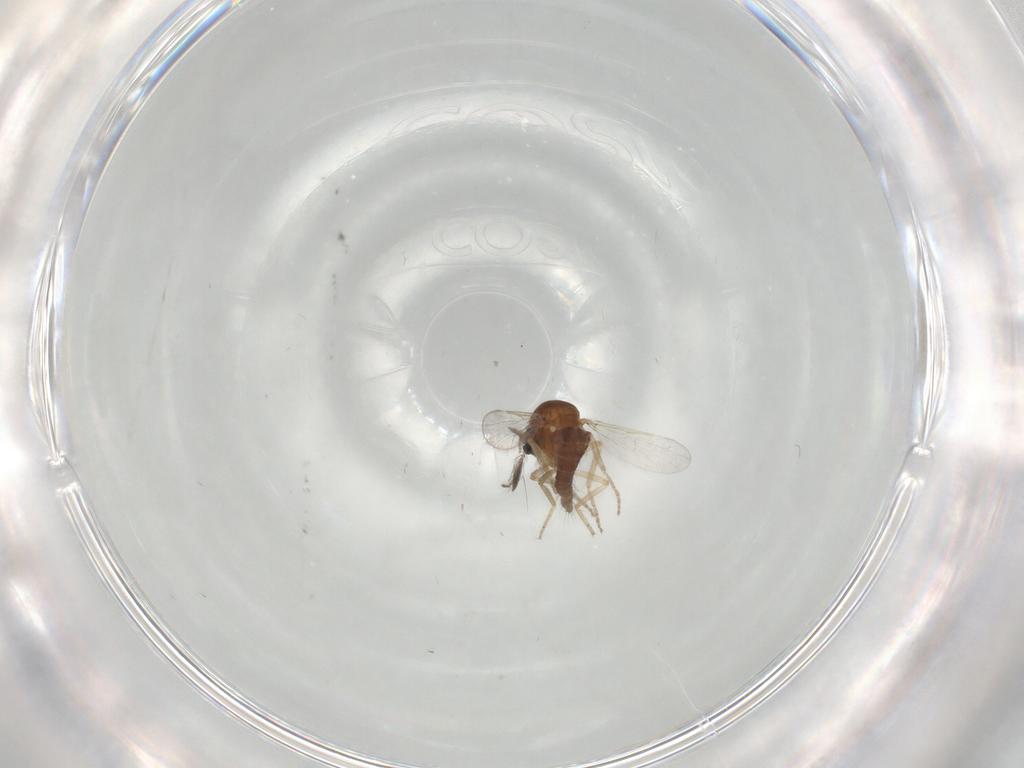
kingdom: Animalia
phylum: Arthropoda
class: Insecta
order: Diptera
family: Ceratopogonidae
